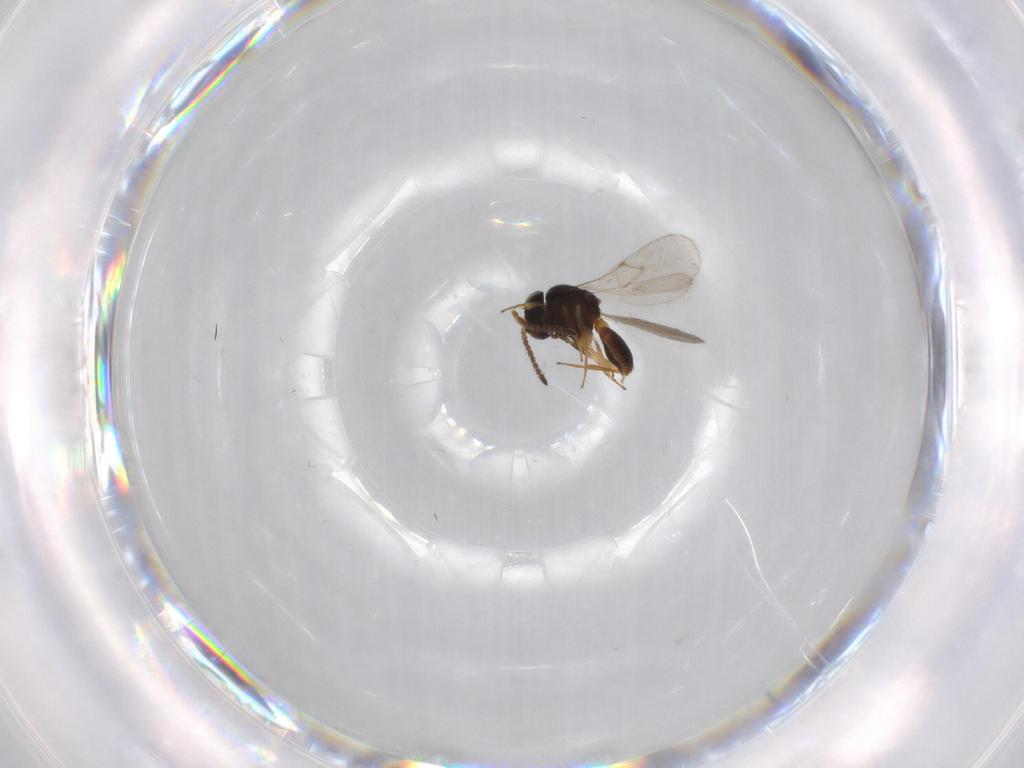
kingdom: Animalia
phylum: Arthropoda
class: Insecta
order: Hymenoptera
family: Scelionidae
